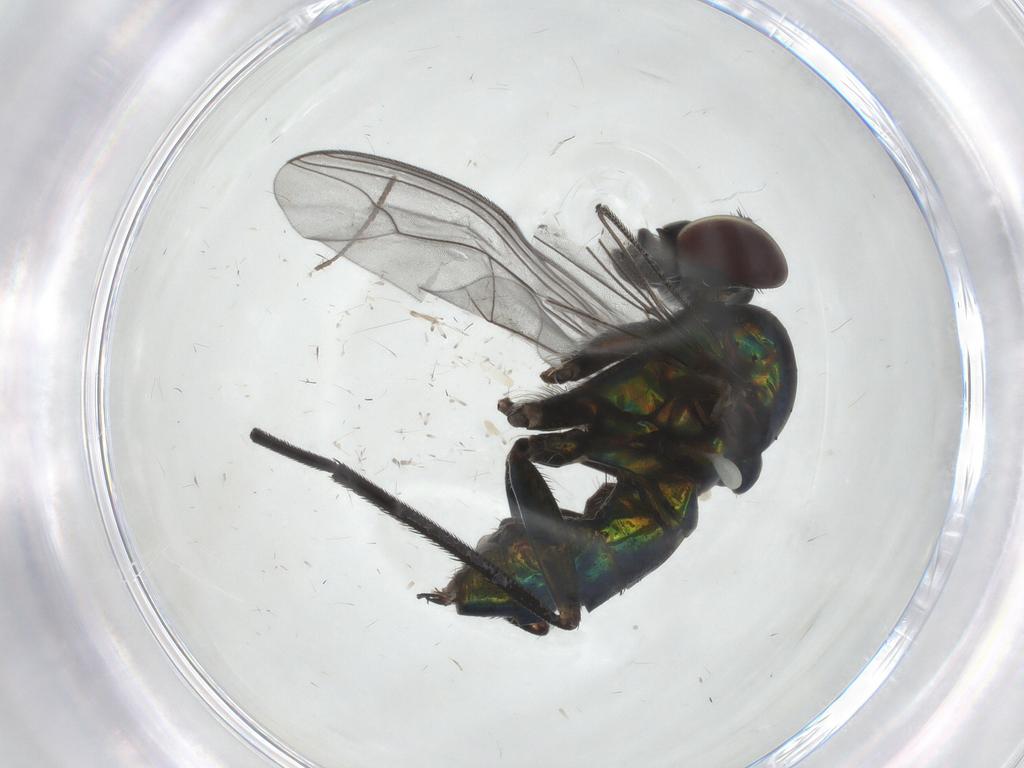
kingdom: Animalia
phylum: Arthropoda
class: Insecta
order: Diptera
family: Dolichopodidae
